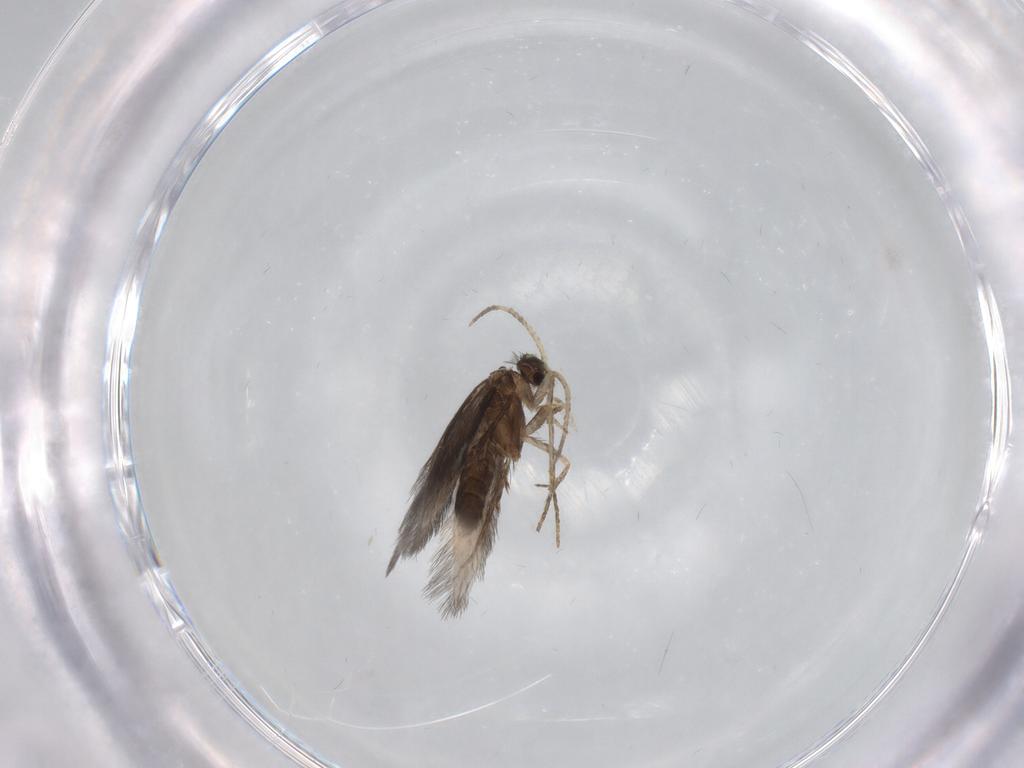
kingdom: Animalia
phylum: Arthropoda
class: Insecta
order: Trichoptera
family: Hydroptilidae
